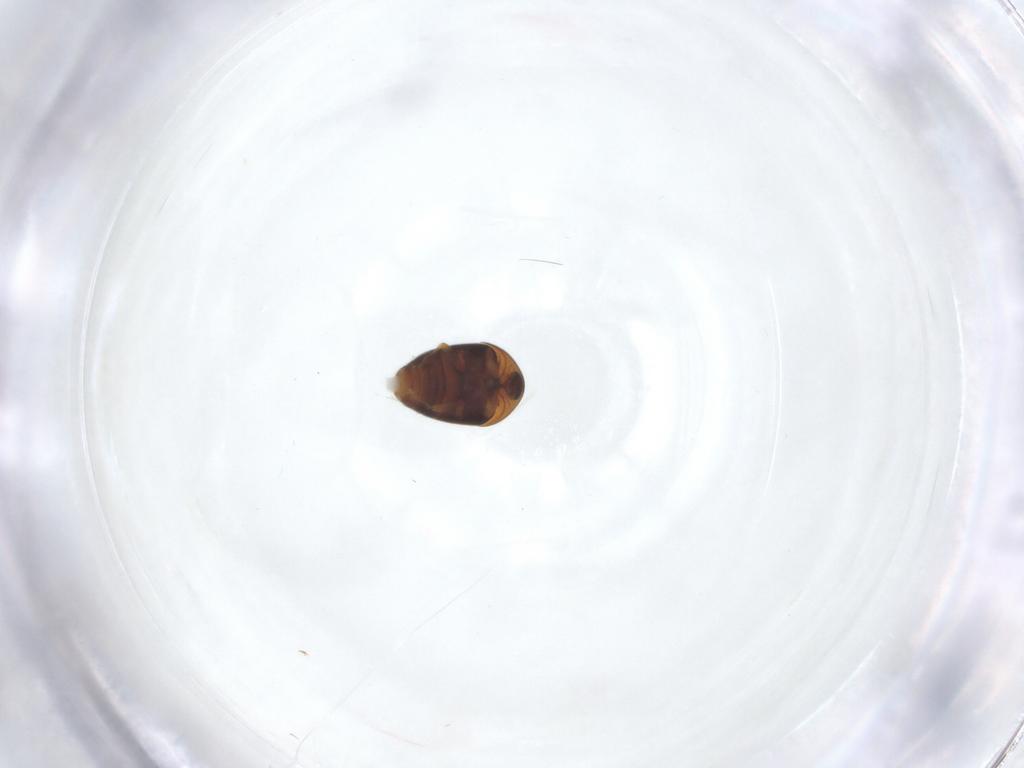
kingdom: Animalia
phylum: Arthropoda
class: Insecta
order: Coleoptera
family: Corylophidae
